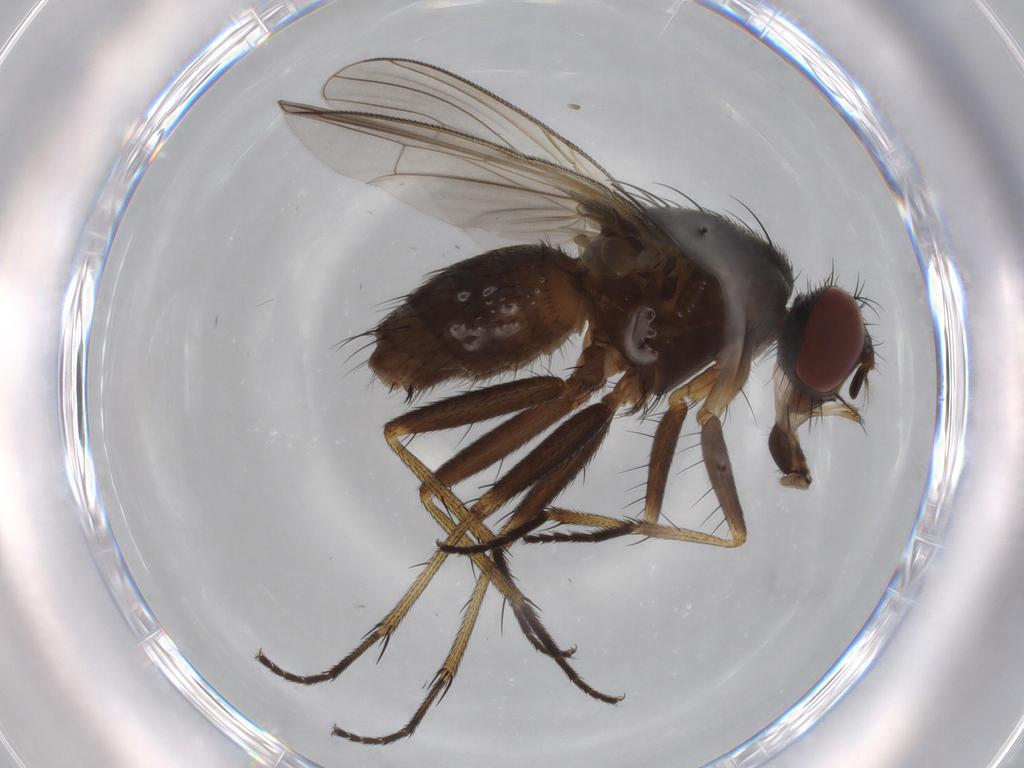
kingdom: Animalia
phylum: Arthropoda
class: Insecta
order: Diptera
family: Muscidae
